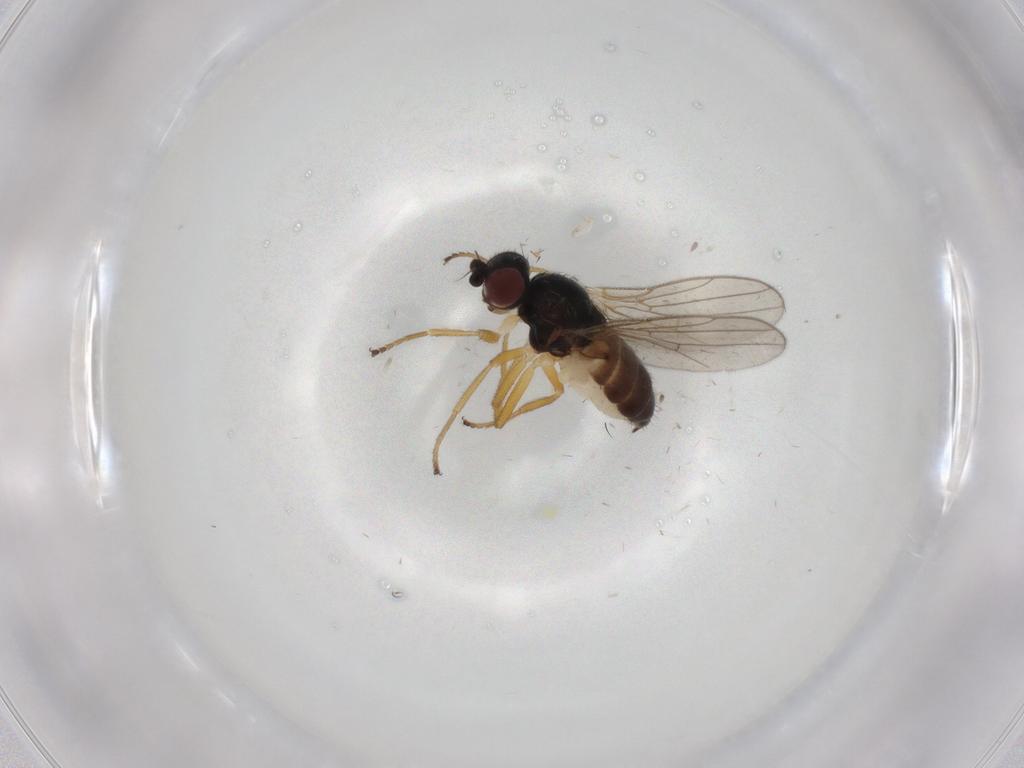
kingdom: Animalia
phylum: Arthropoda
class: Insecta
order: Diptera
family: Chloropidae
